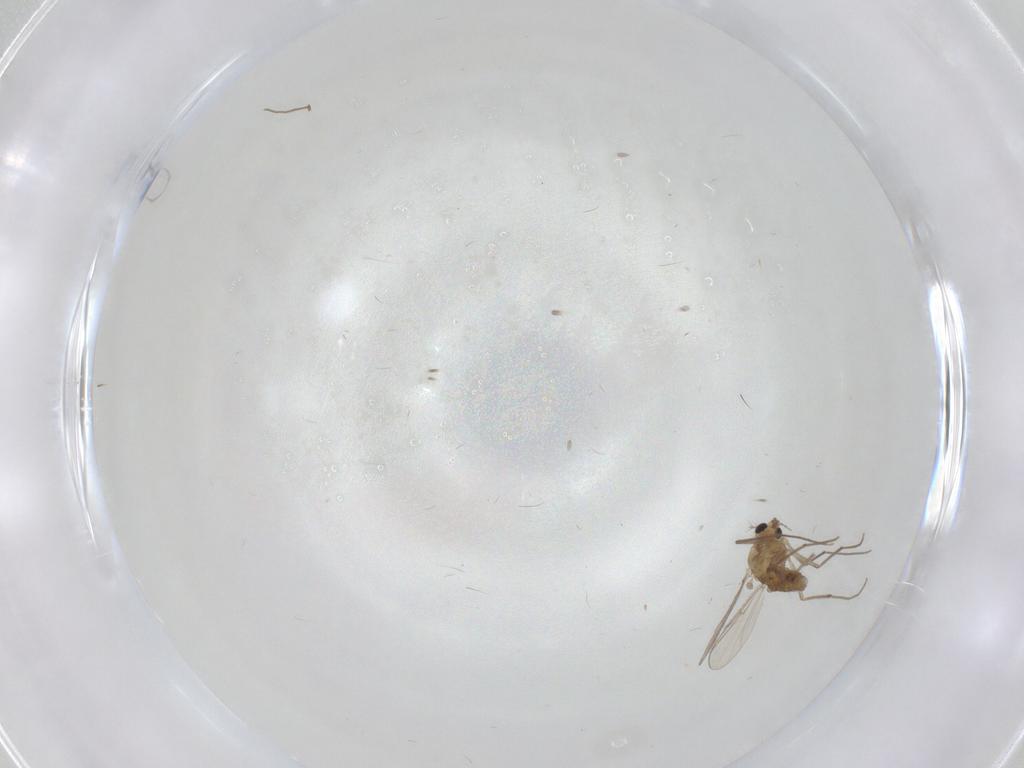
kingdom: Animalia
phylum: Arthropoda
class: Insecta
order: Diptera
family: Chironomidae
